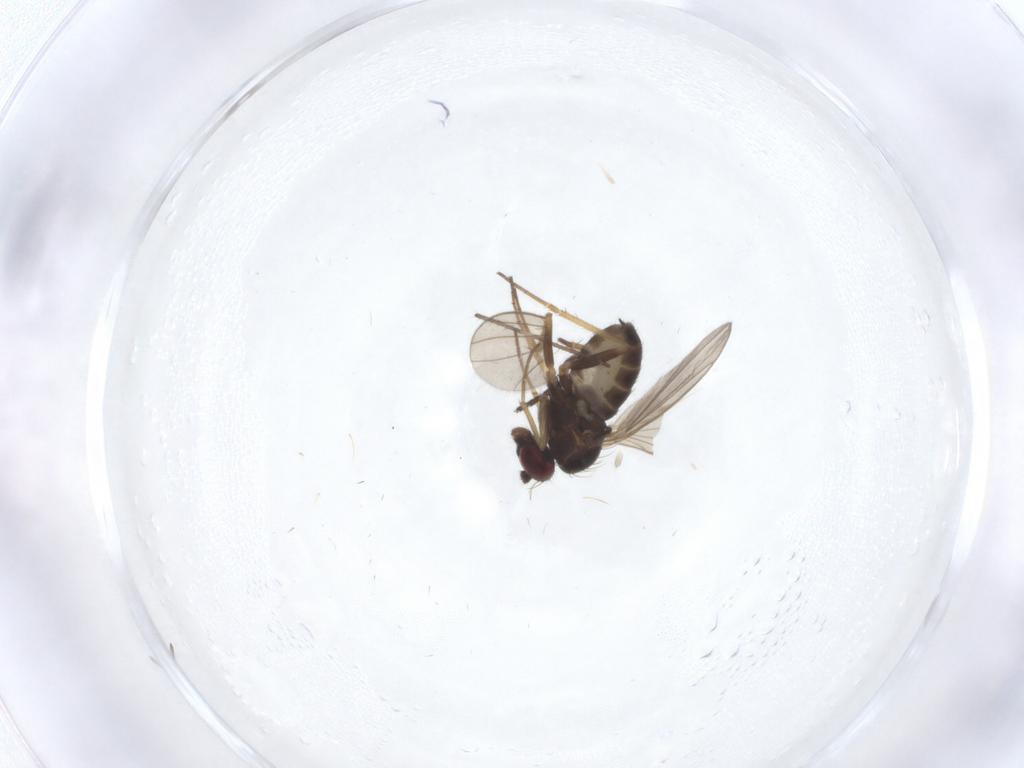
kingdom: Animalia
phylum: Arthropoda
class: Insecta
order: Diptera
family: Sciaridae
